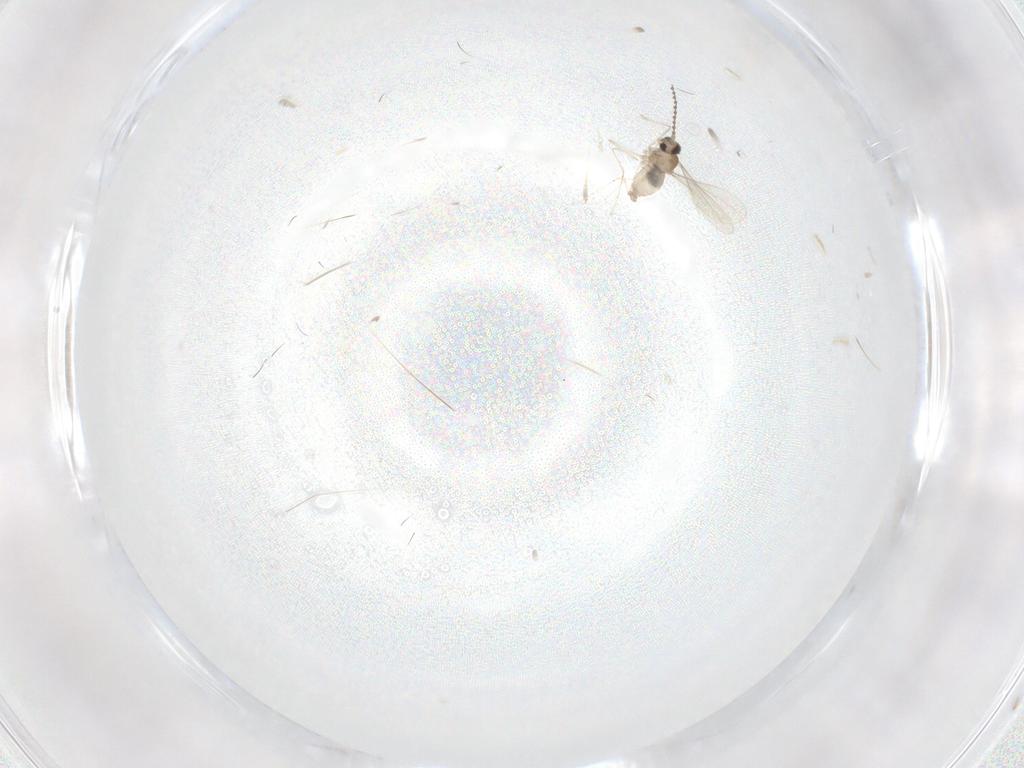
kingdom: Animalia
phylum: Arthropoda
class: Insecta
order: Diptera
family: Cecidomyiidae
